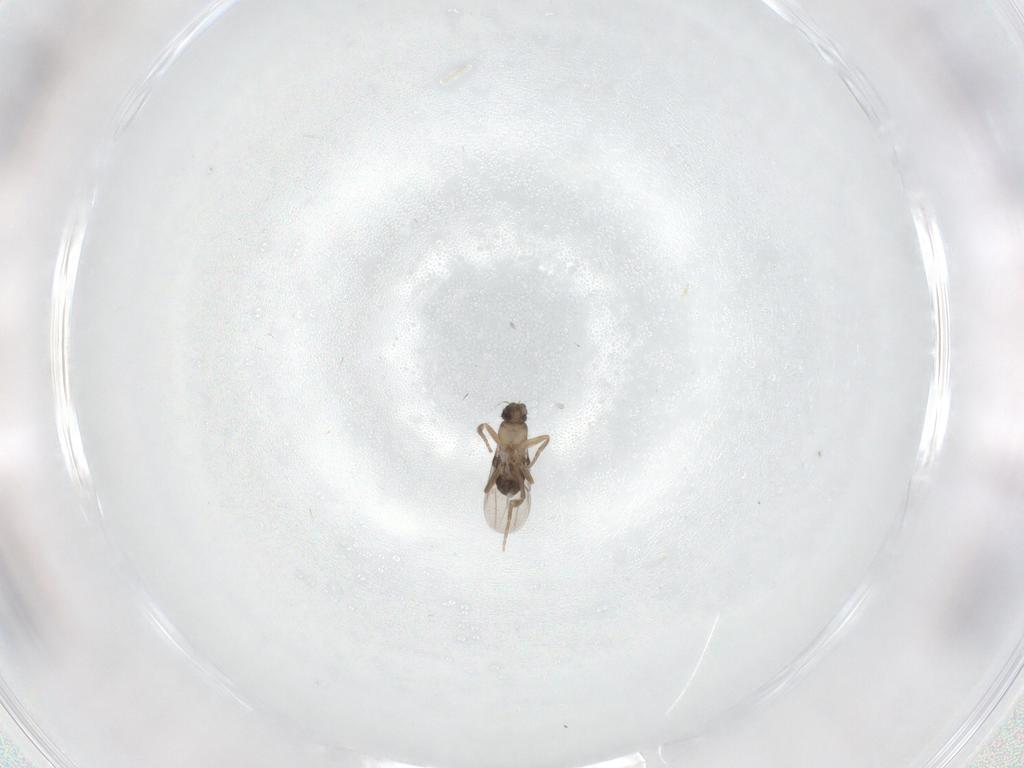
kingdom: Animalia
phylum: Arthropoda
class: Insecta
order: Diptera
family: Phoridae
